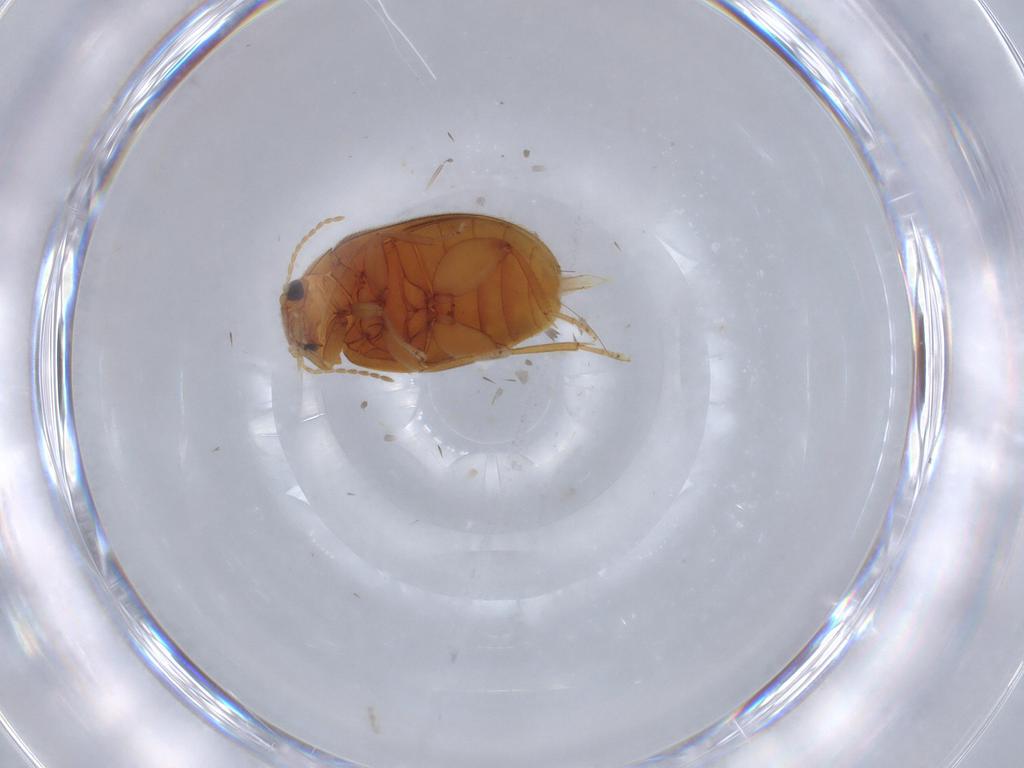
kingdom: Animalia
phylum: Arthropoda
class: Insecta
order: Coleoptera
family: Scirtidae
